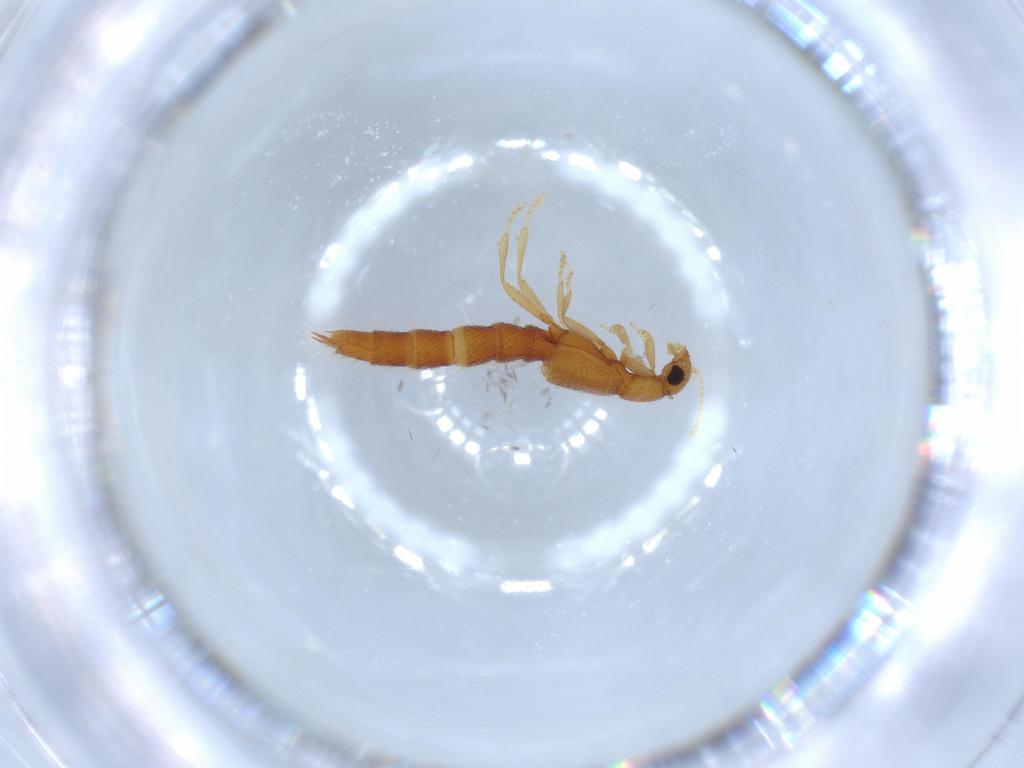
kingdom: Animalia
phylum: Arthropoda
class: Insecta
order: Coleoptera
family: Staphylinidae
